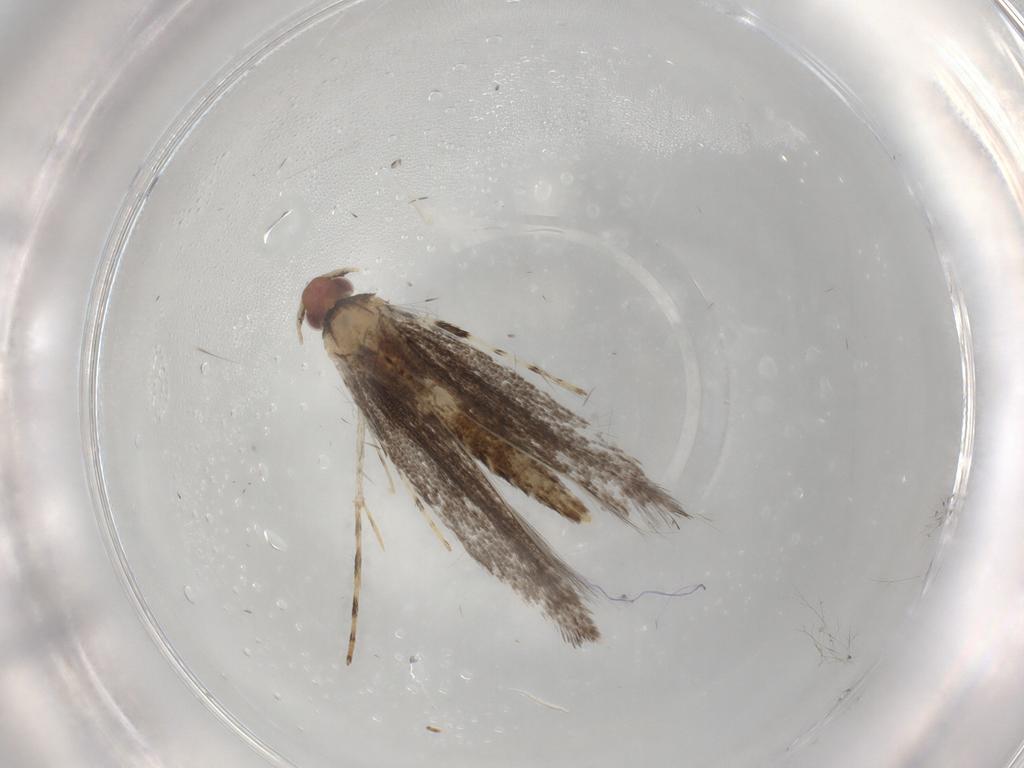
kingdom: Animalia
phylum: Arthropoda
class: Insecta
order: Lepidoptera
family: Gracillariidae
